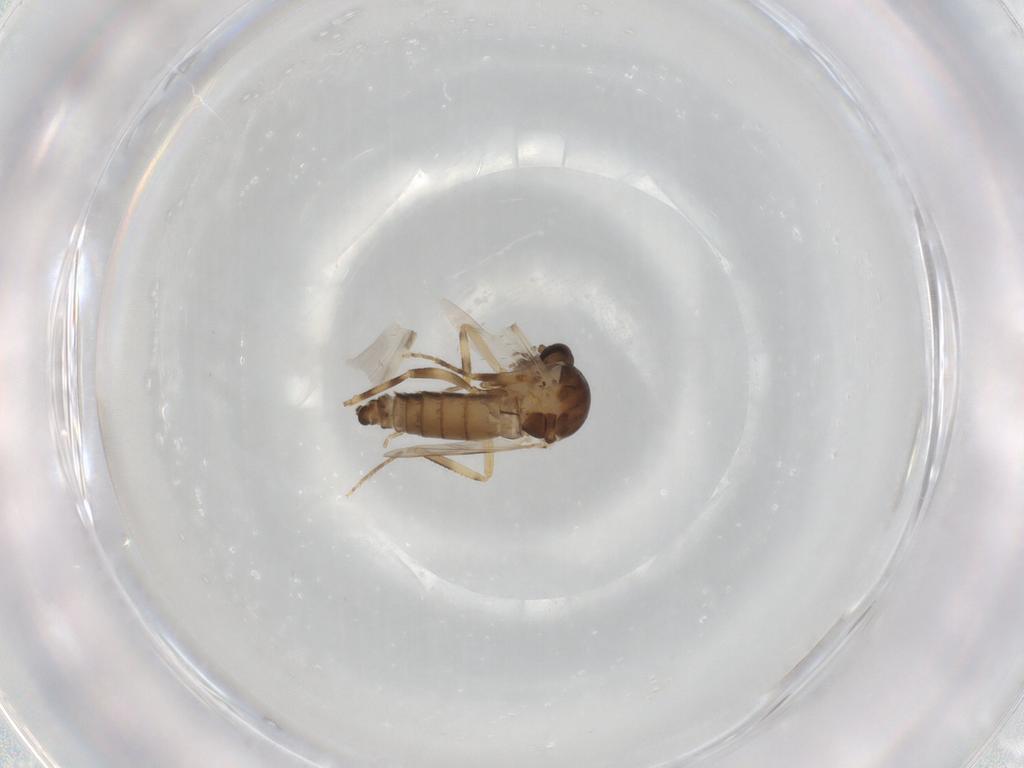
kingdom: Animalia
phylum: Arthropoda
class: Insecta
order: Diptera
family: Ceratopogonidae
